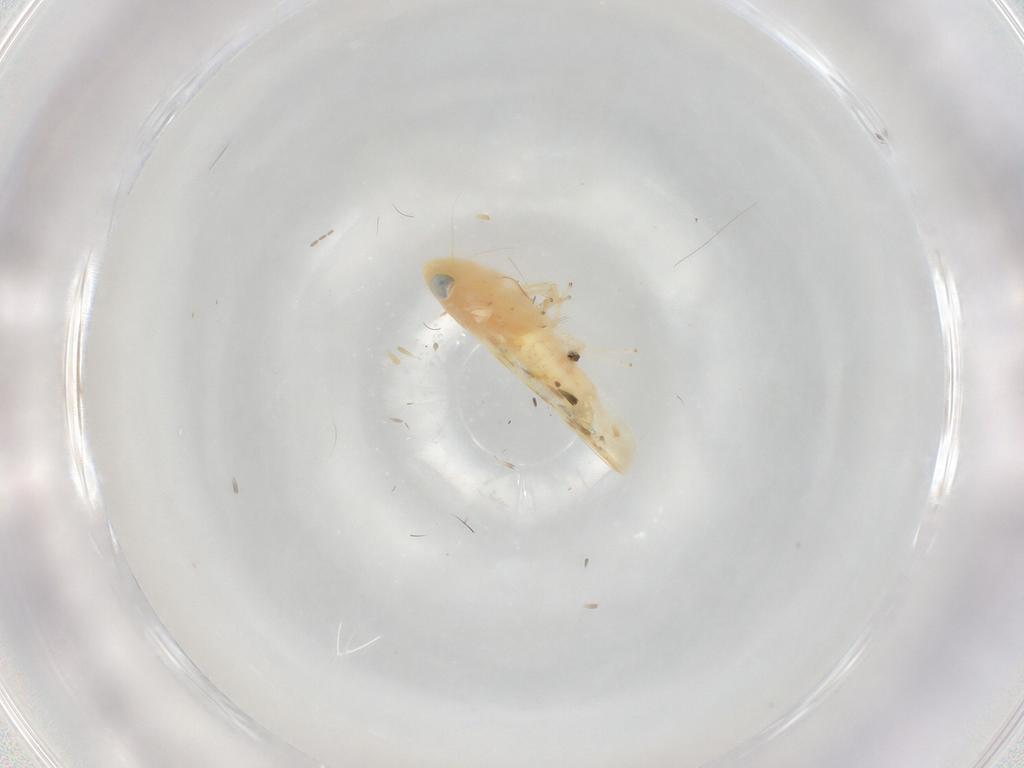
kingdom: Animalia
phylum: Arthropoda
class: Insecta
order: Hemiptera
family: Cicadellidae
